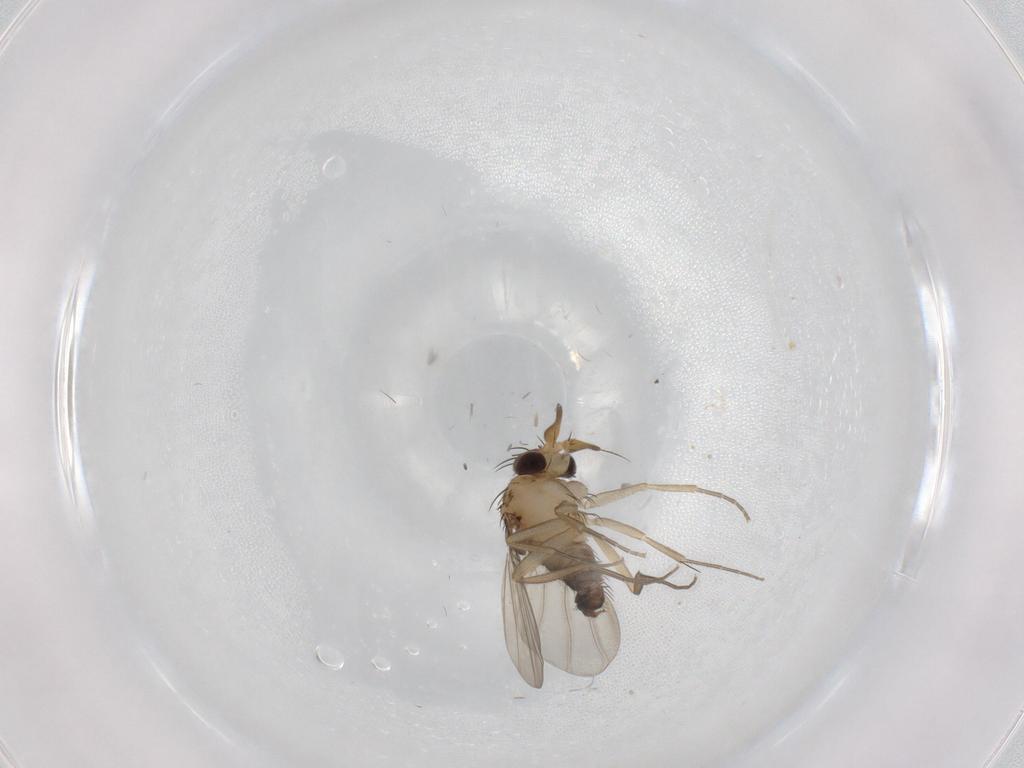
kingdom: Animalia
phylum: Arthropoda
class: Insecta
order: Diptera
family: Phoridae
